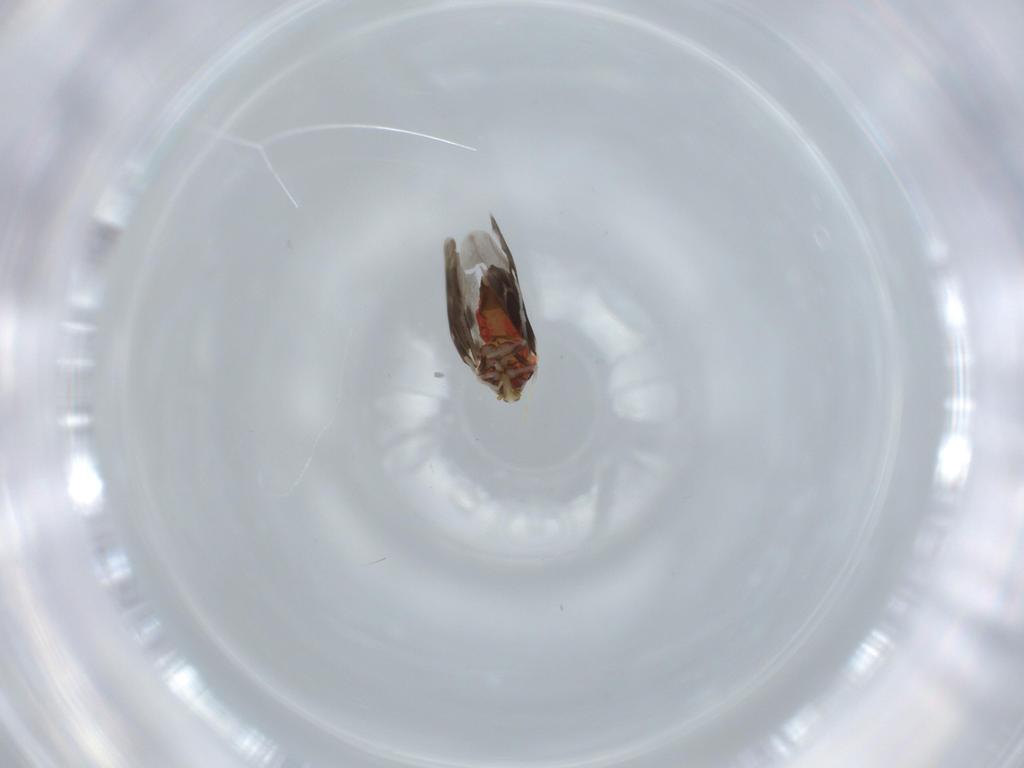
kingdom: Animalia
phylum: Arthropoda
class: Insecta
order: Hemiptera
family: Aleyrodidae
